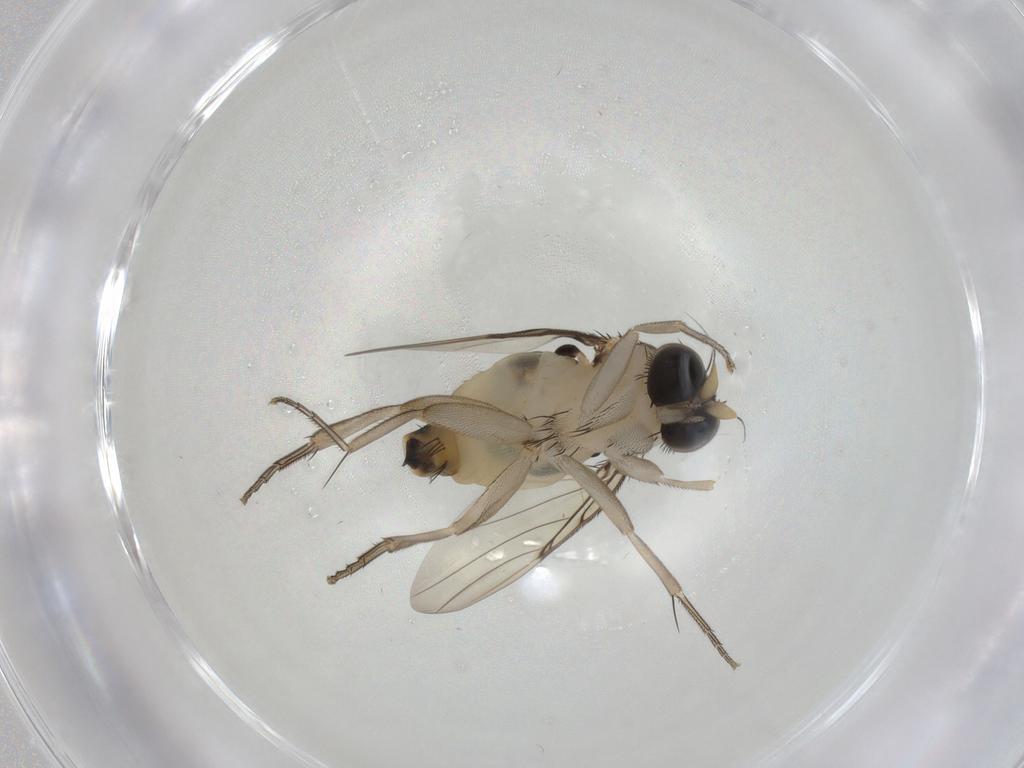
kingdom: Animalia
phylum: Arthropoda
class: Insecta
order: Diptera
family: Phoridae
